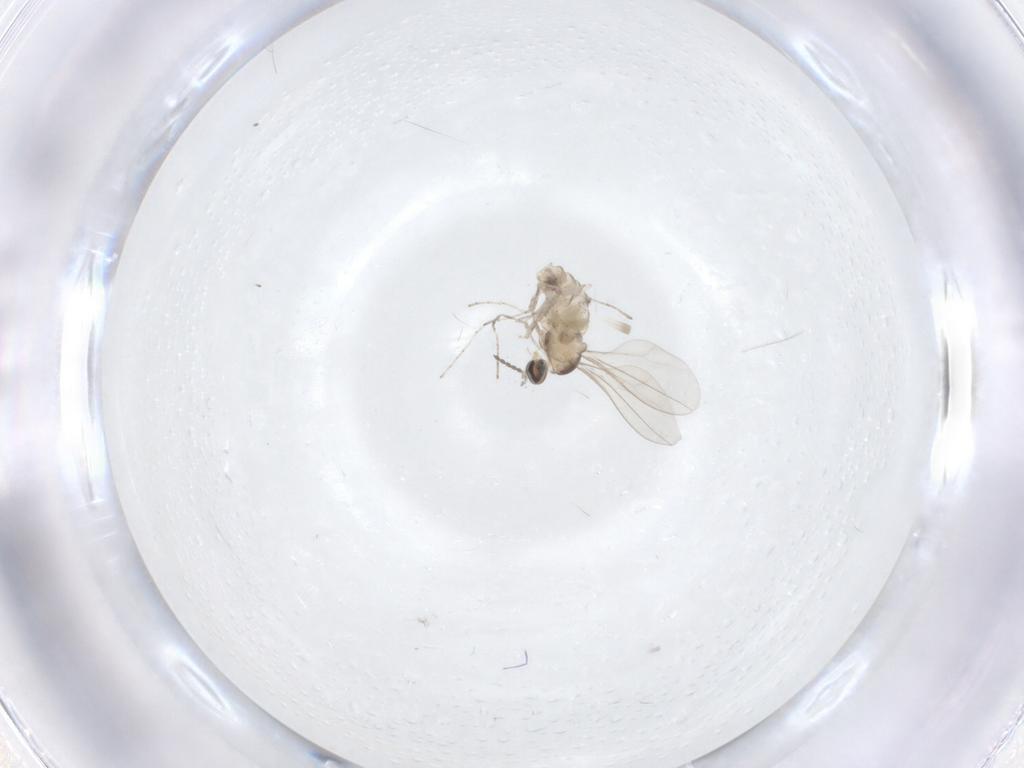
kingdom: Animalia
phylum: Arthropoda
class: Insecta
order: Diptera
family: Cecidomyiidae
